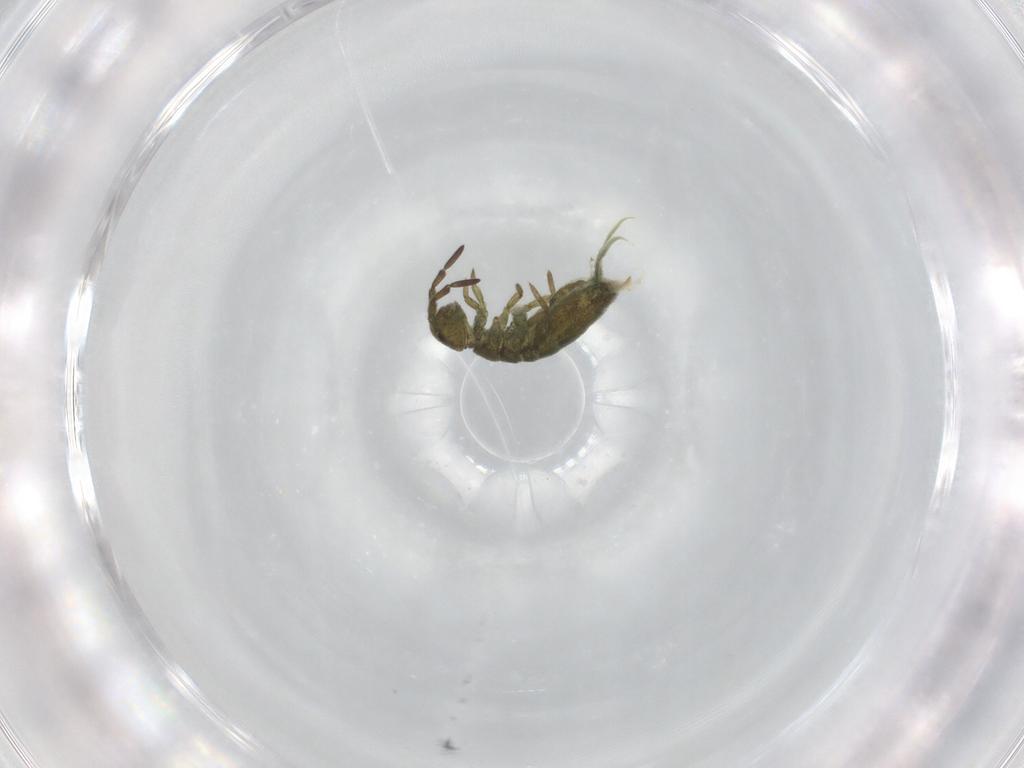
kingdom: Animalia
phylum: Arthropoda
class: Collembola
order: Entomobryomorpha
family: Isotomidae
